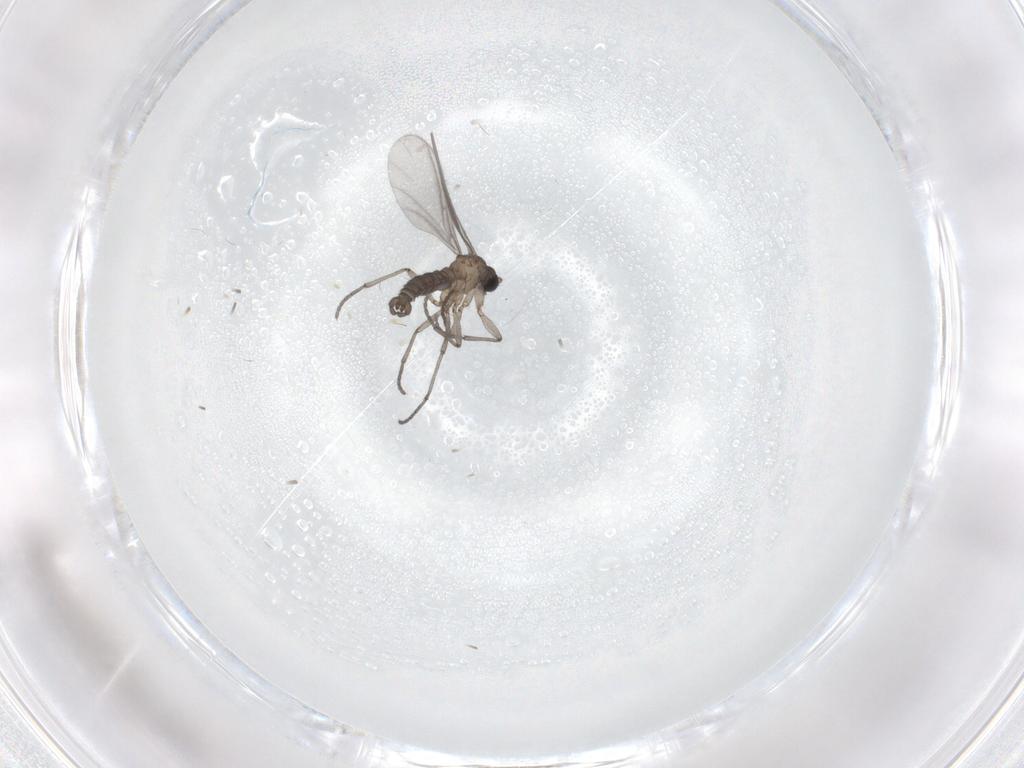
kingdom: Animalia
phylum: Arthropoda
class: Insecta
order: Diptera
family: Sciaridae
